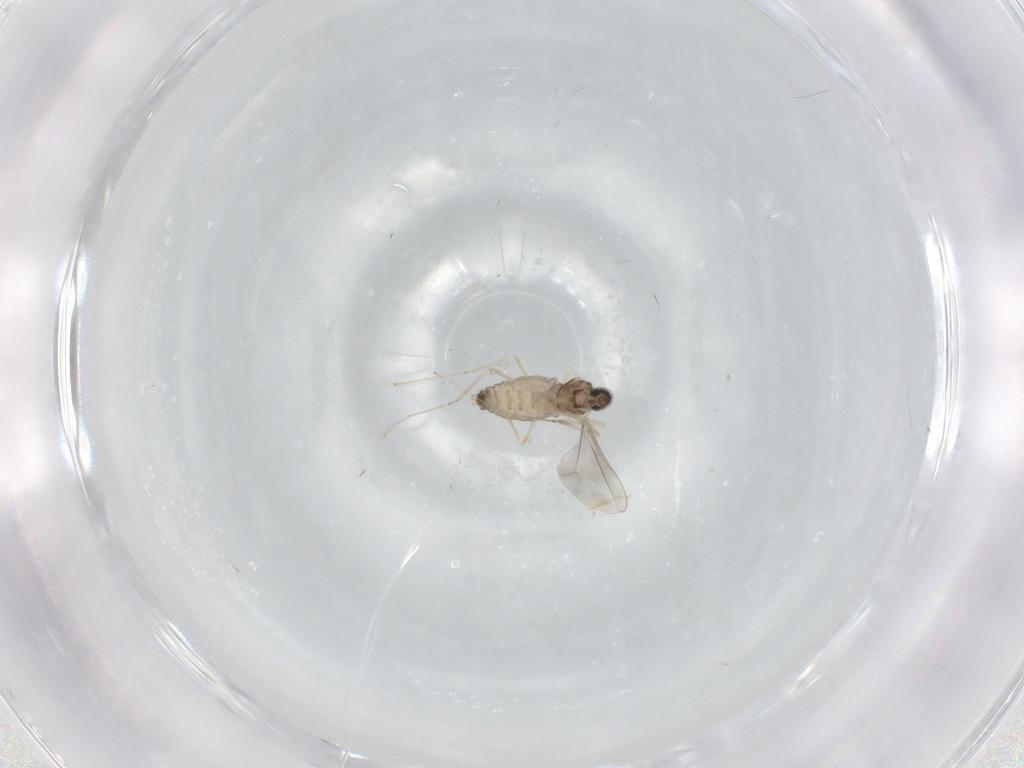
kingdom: Animalia
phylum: Arthropoda
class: Insecta
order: Diptera
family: Cecidomyiidae
